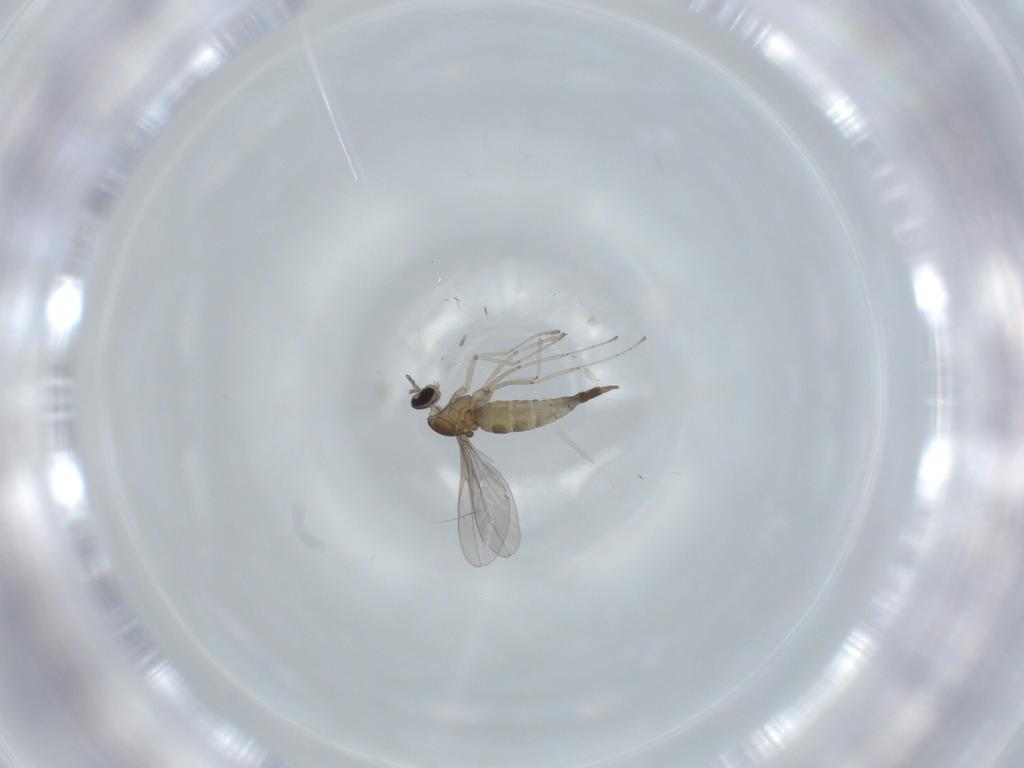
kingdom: Animalia
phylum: Arthropoda
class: Insecta
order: Diptera
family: Cecidomyiidae
